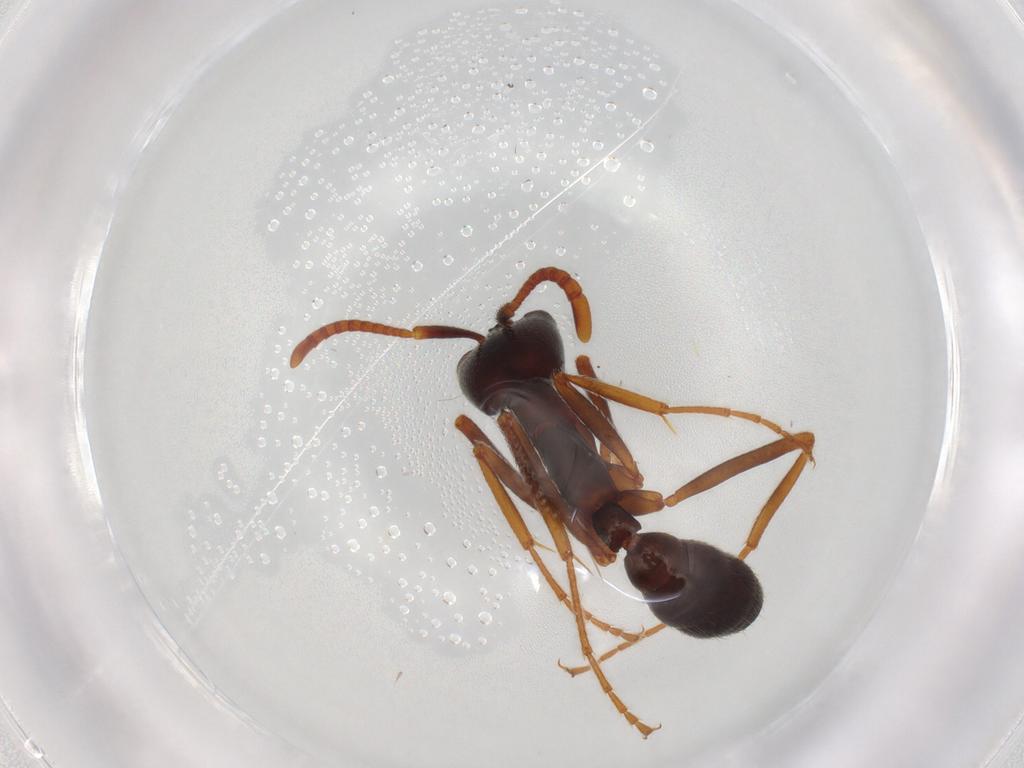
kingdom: Animalia
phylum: Arthropoda
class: Insecta
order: Hymenoptera
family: Formicidae
